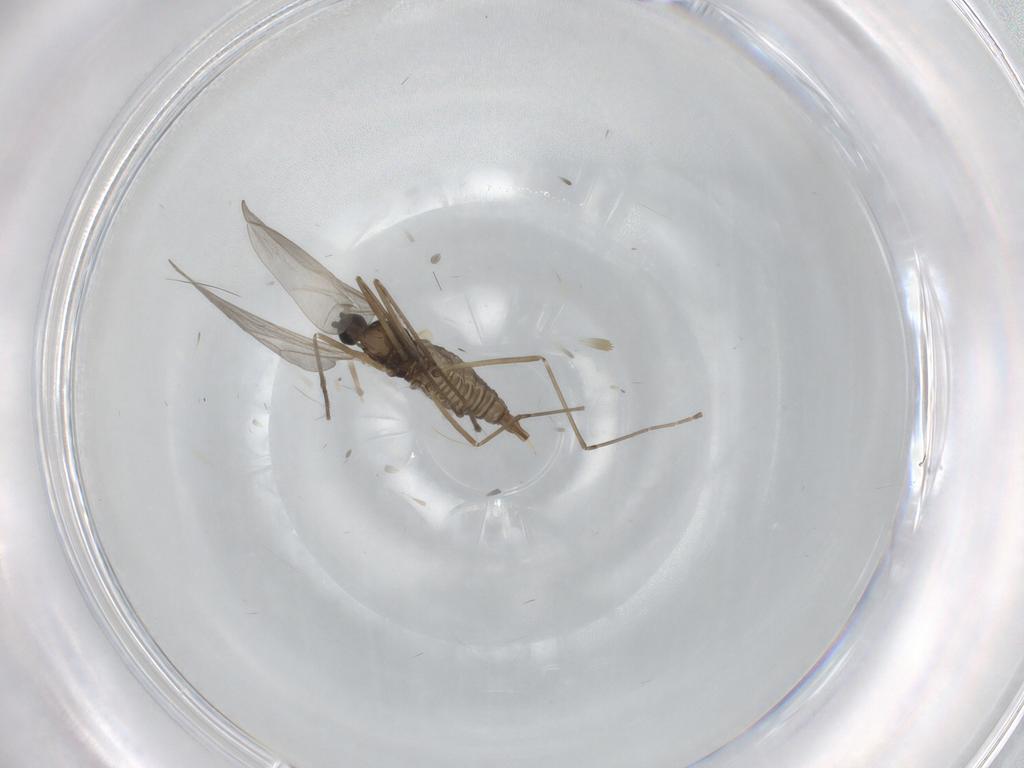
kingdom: Animalia
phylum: Arthropoda
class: Insecta
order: Diptera
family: Cecidomyiidae
